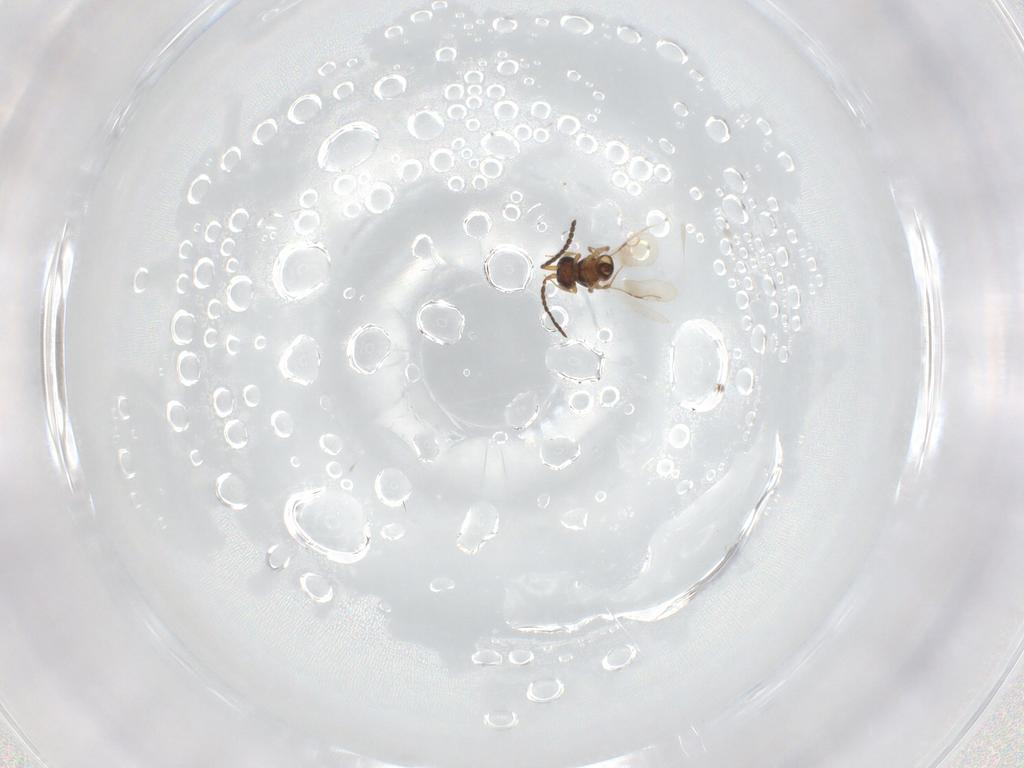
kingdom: Animalia
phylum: Arthropoda
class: Insecta
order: Hymenoptera
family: Ceraphronidae
